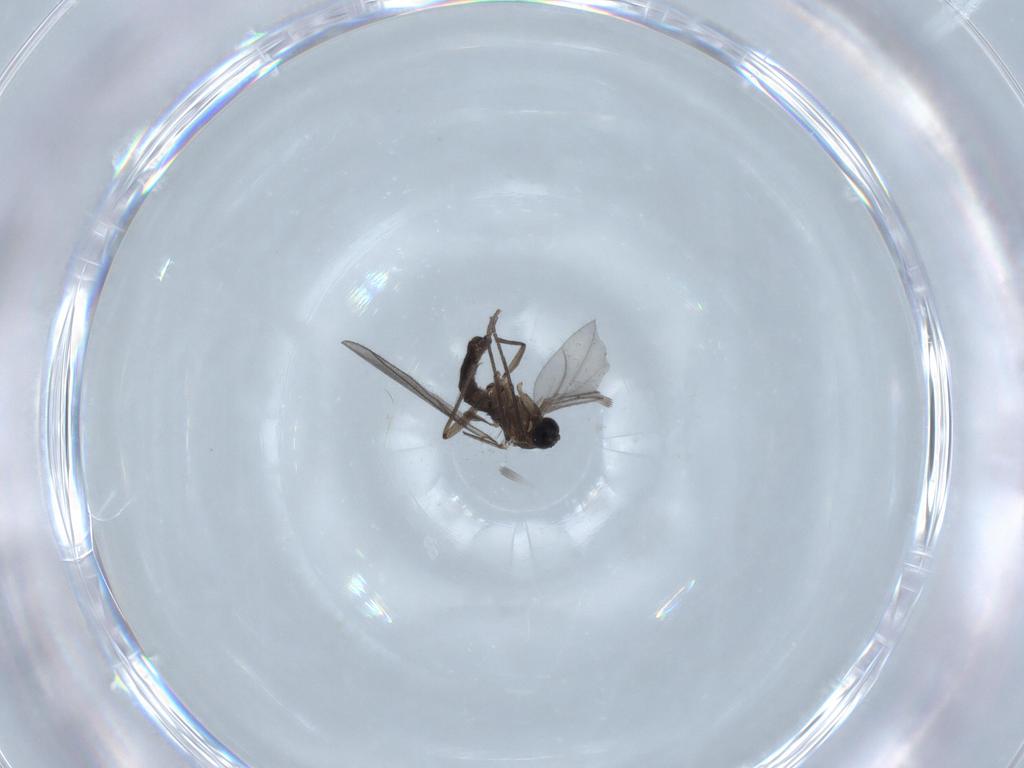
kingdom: Animalia
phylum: Arthropoda
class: Insecta
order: Diptera
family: Sciaridae
